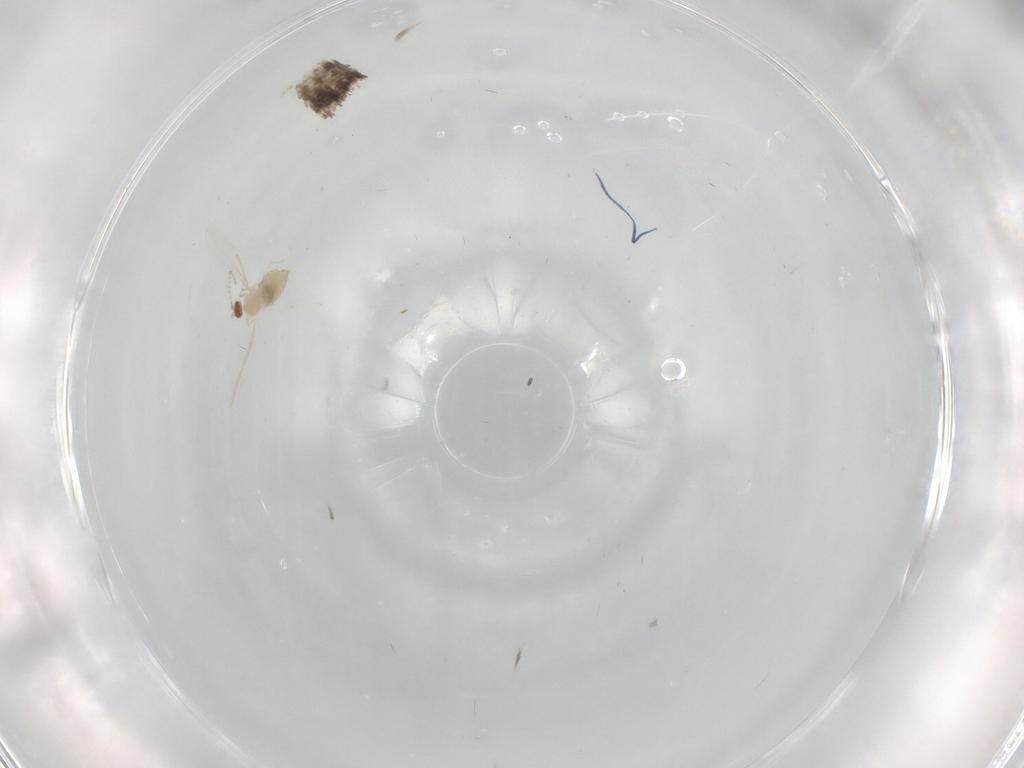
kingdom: Animalia
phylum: Arthropoda
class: Insecta
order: Diptera
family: Cecidomyiidae
